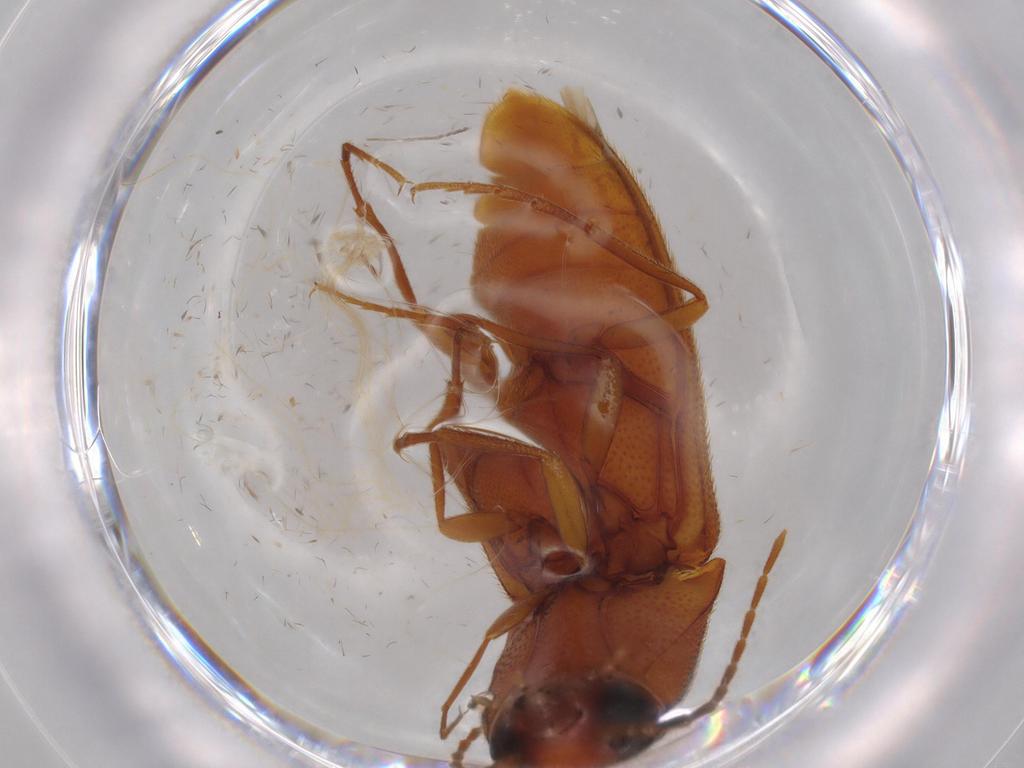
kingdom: Animalia
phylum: Arthropoda
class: Insecta
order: Coleoptera
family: Elateridae
